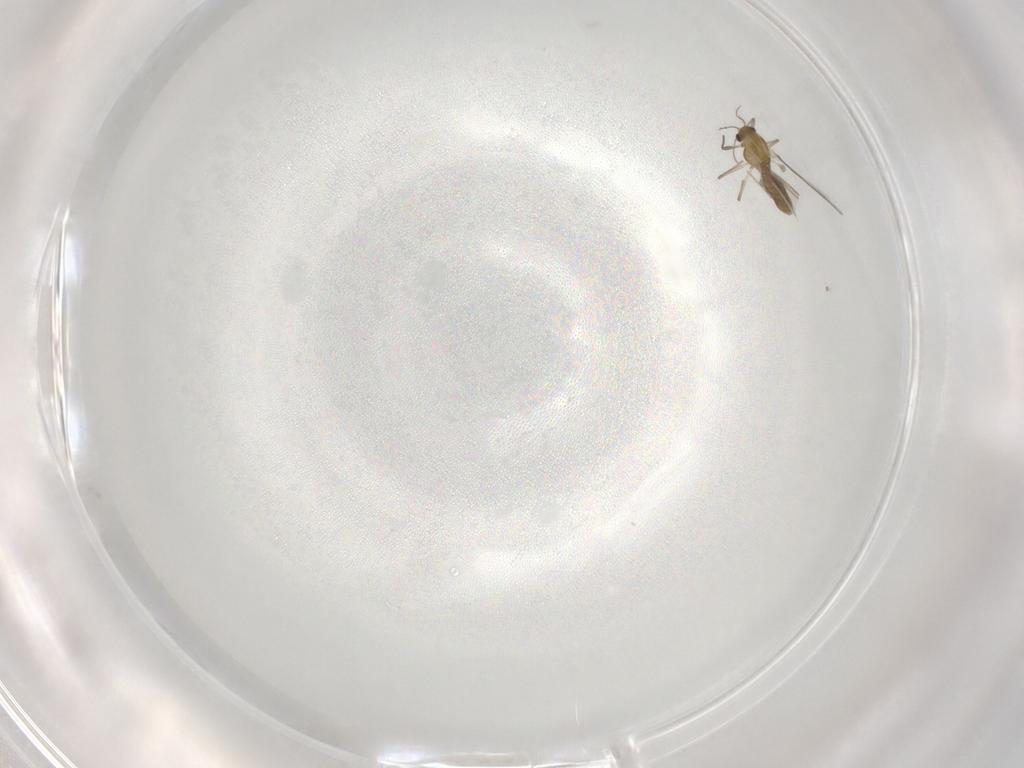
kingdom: Animalia
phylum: Arthropoda
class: Insecta
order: Diptera
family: Chironomidae
